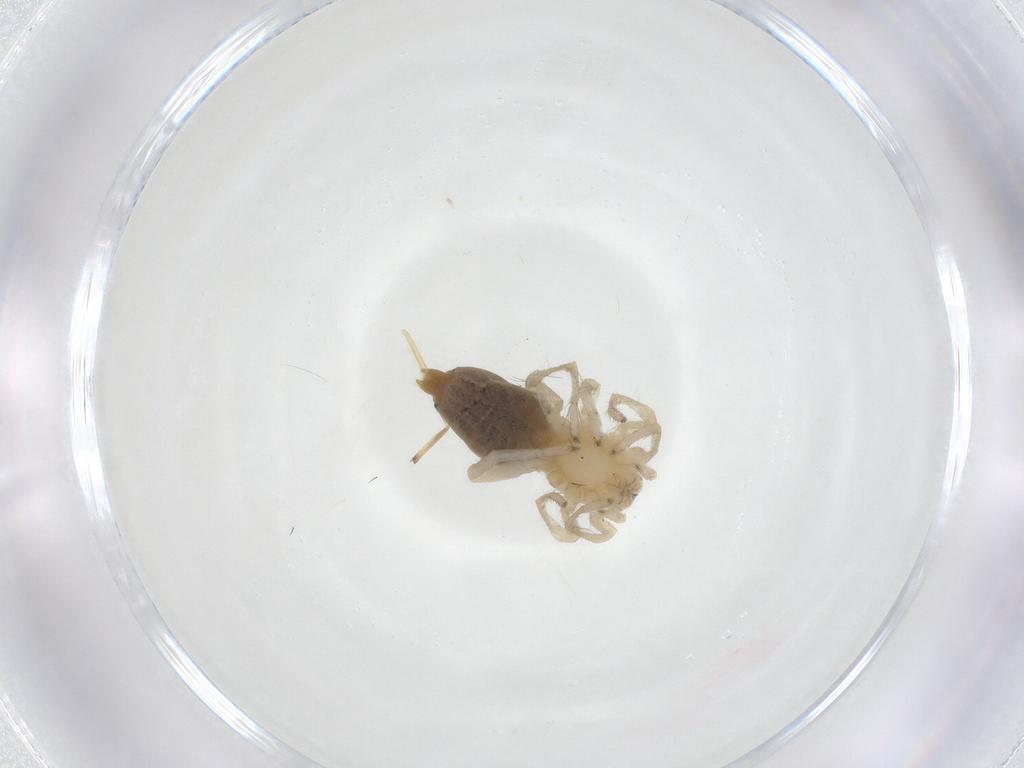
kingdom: Animalia
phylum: Arthropoda
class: Arachnida
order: Araneae
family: Clubionidae
